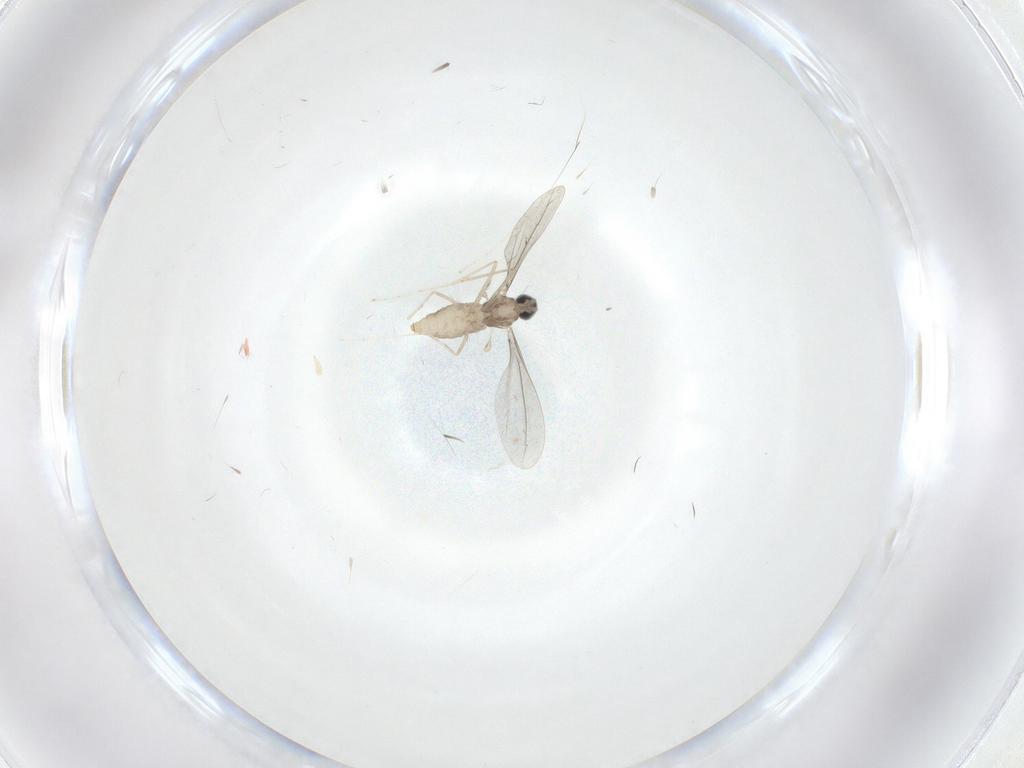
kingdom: Animalia
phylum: Arthropoda
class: Insecta
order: Diptera
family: Cecidomyiidae
